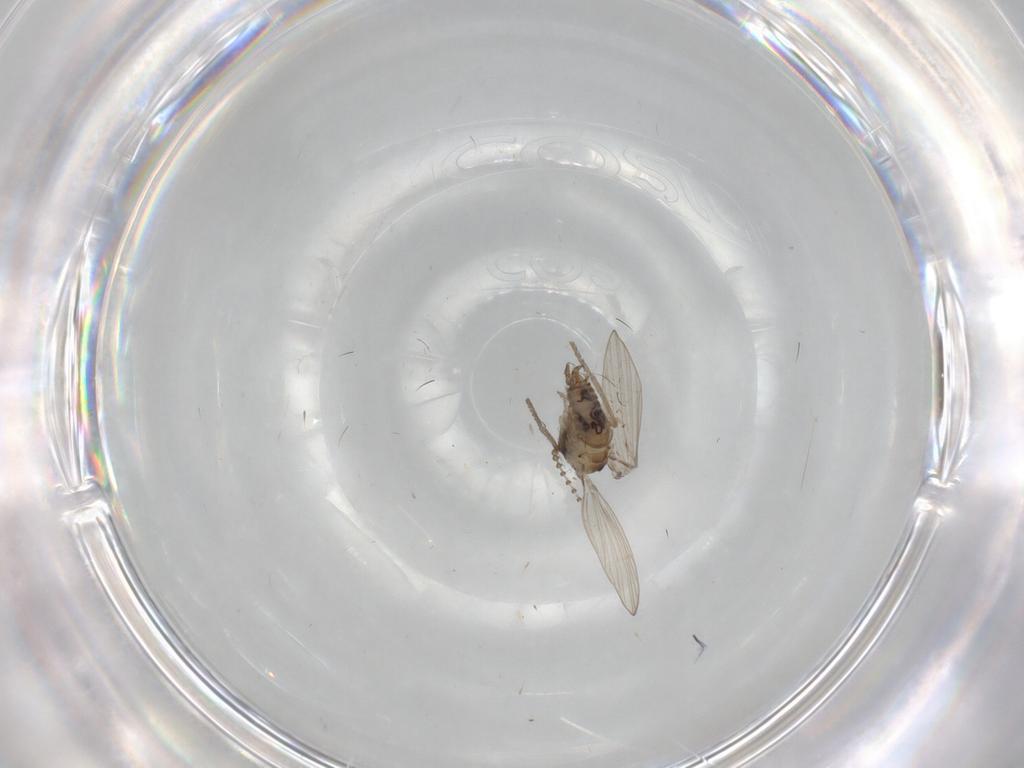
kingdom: Animalia
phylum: Arthropoda
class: Insecta
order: Diptera
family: Psychodidae
